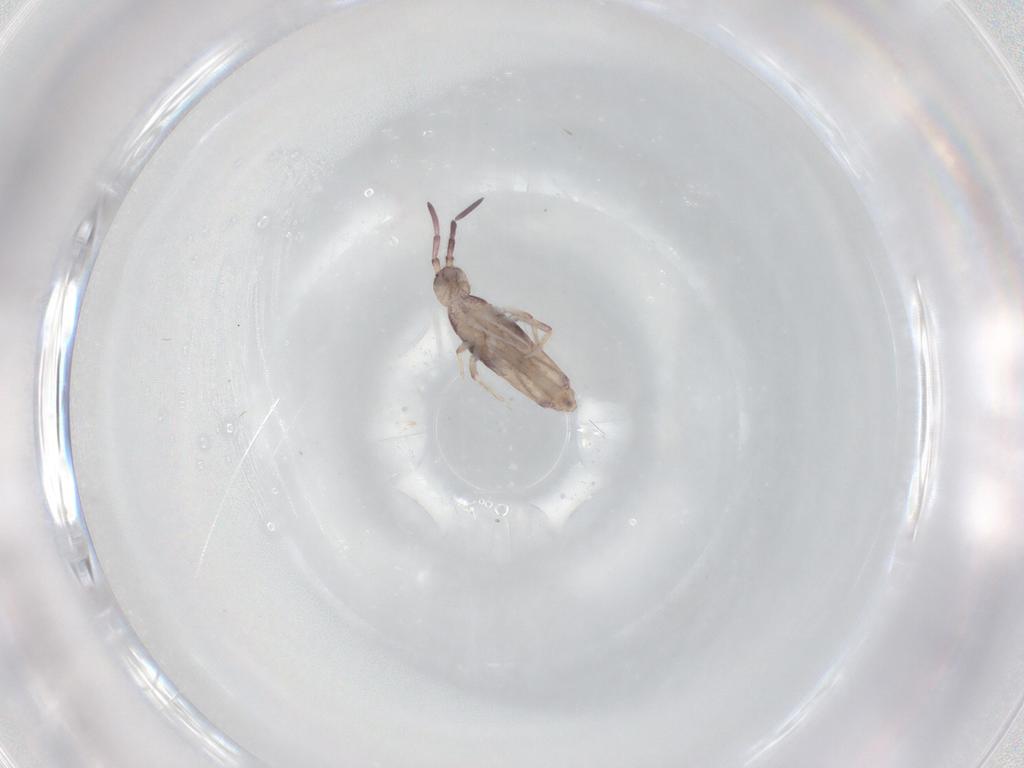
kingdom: Animalia
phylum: Arthropoda
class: Collembola
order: Poduromorpha
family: Hypogastruridae
